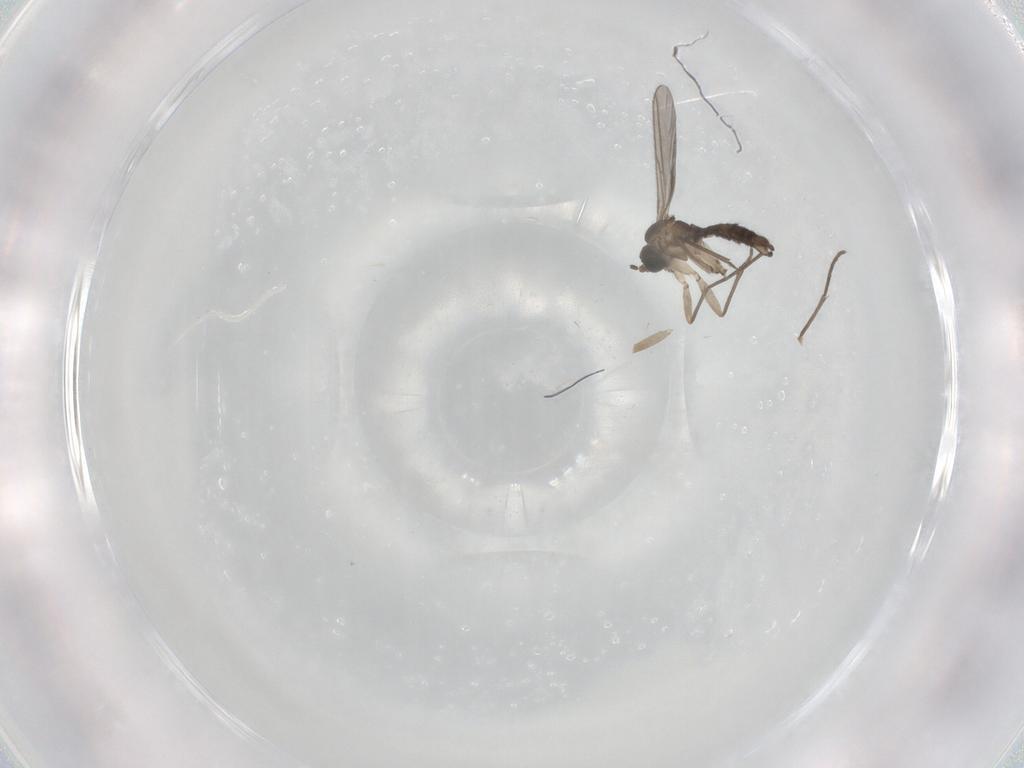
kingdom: Animalia
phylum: Arthropoda
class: Insecta
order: Diptera
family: Sciaridae
